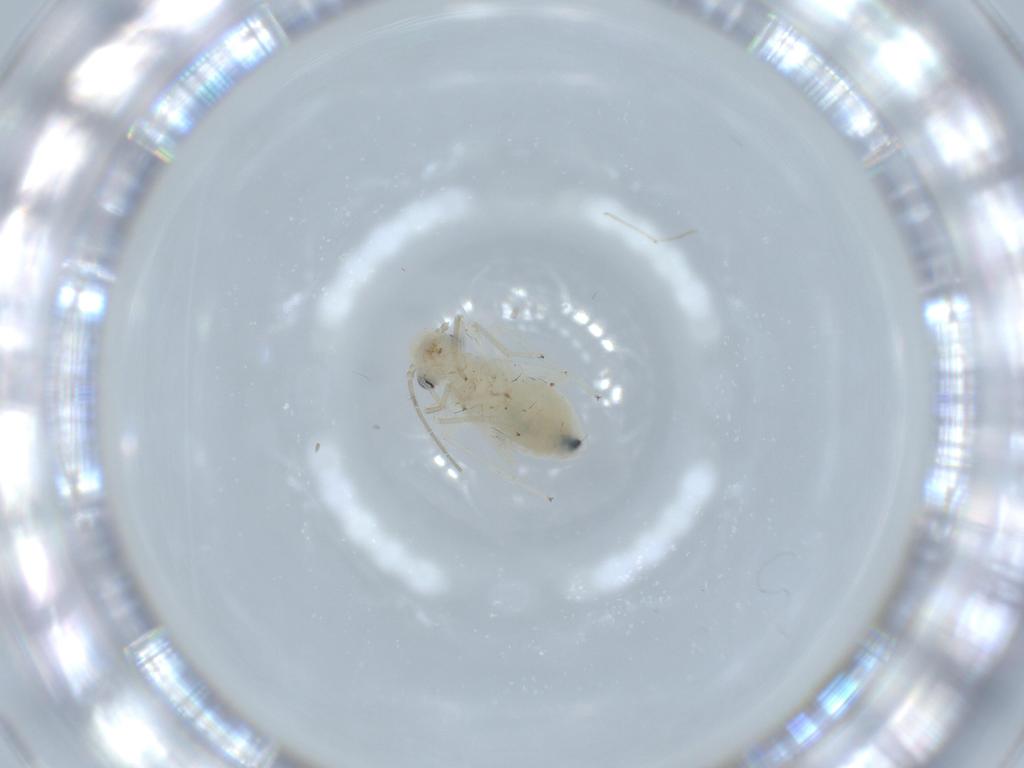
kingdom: Animalia
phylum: Arthropoda
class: Insecta
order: Psocodea
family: Caeciliusidae
